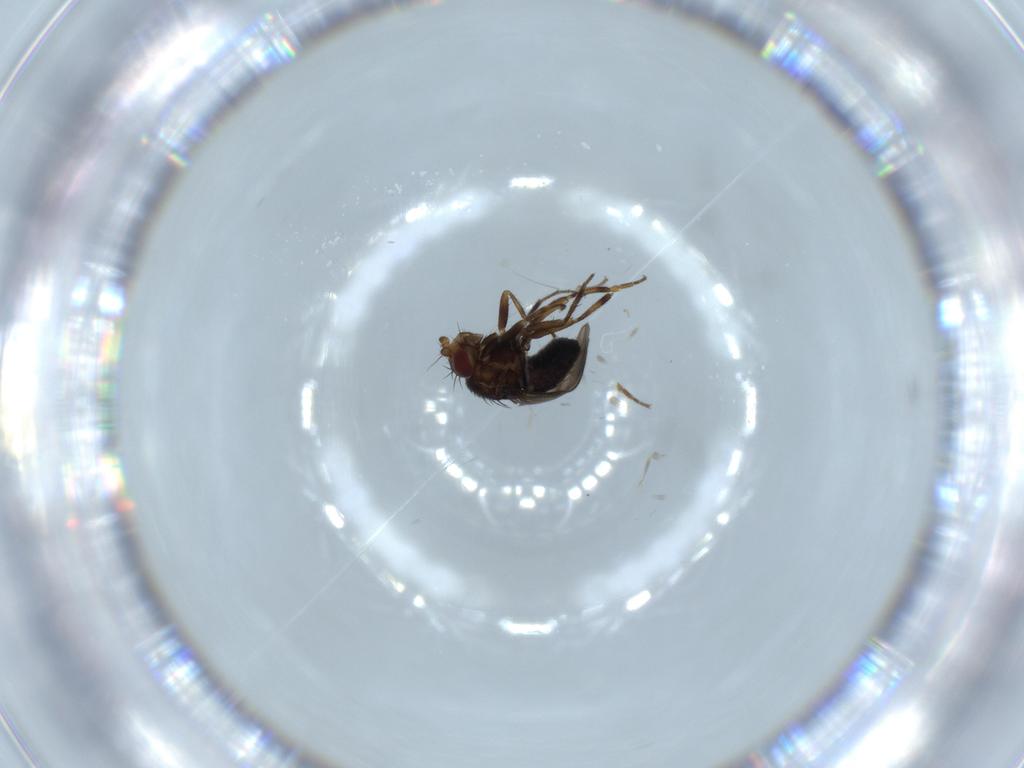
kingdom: Animalia
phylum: Arthropoda
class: Insecta
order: Diptera
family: Sphaeroceridae
